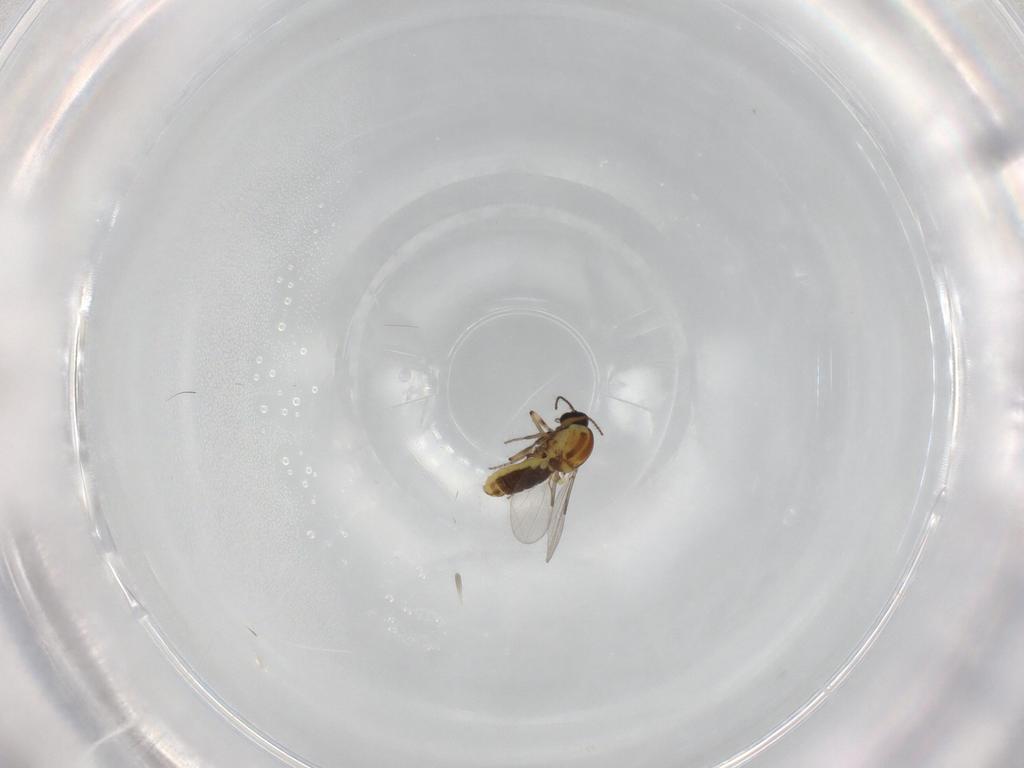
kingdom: Animalia
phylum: Arthropoda
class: Insecta
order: Diptera
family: Ceratopogonidae
